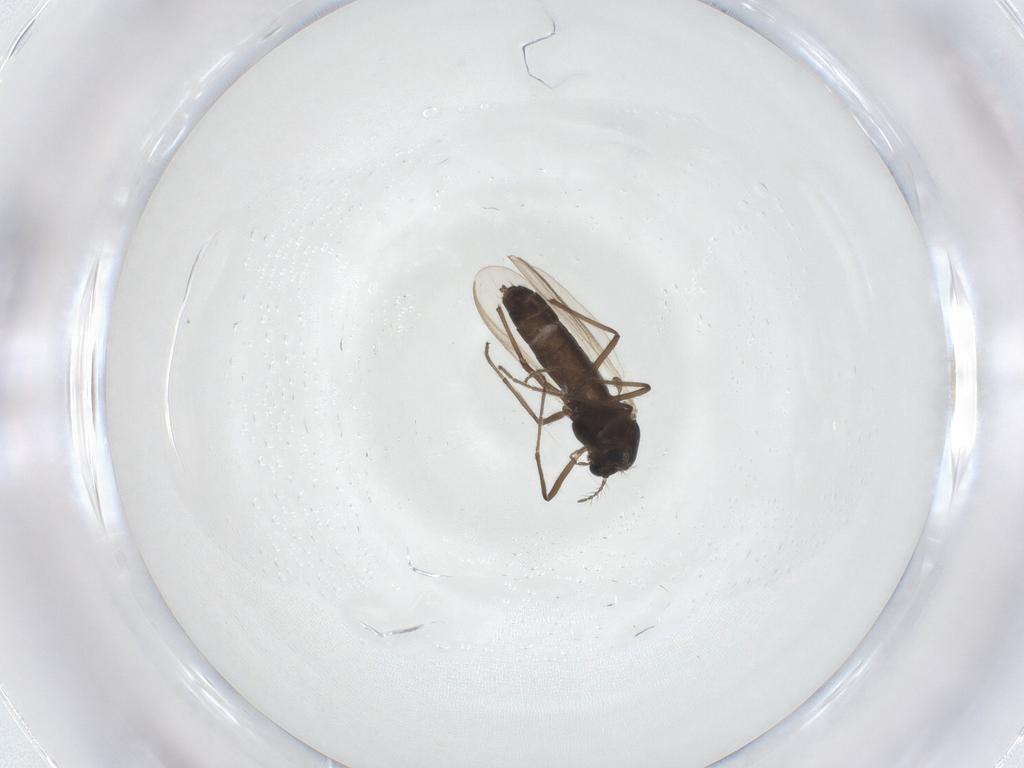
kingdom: Animalia
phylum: Arthropoda
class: Insecta
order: Diptera
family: Chironomidae
